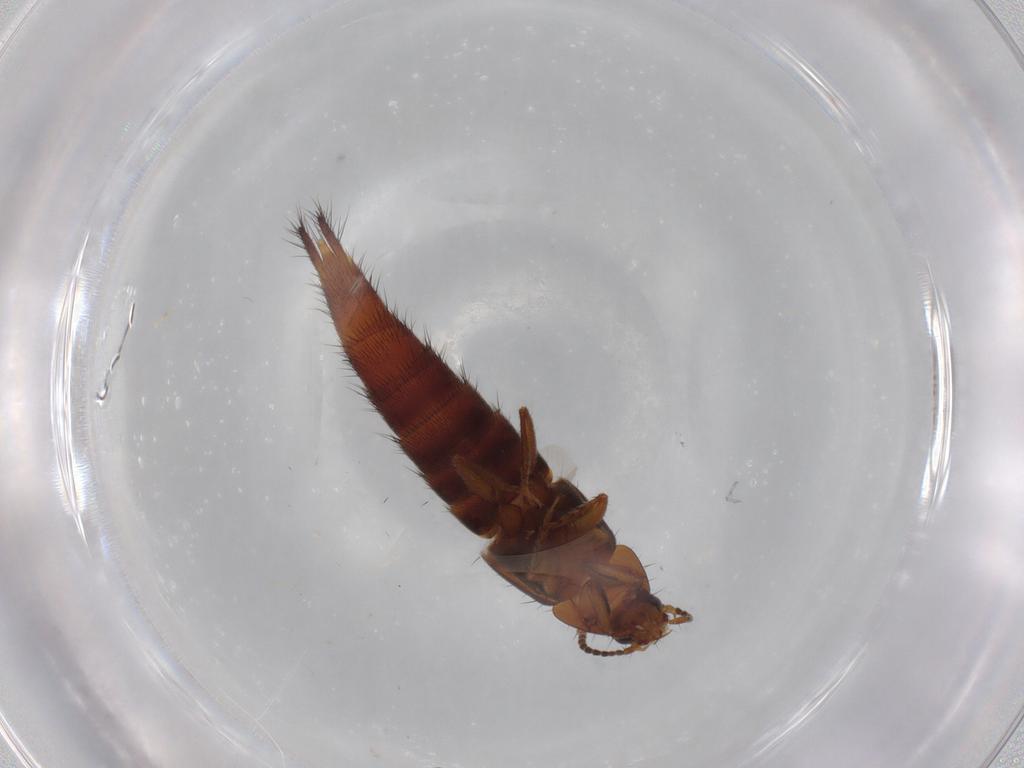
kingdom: Animalia
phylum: Arthropoda
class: Insecta
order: Coleoptera
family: Staphylinidae
